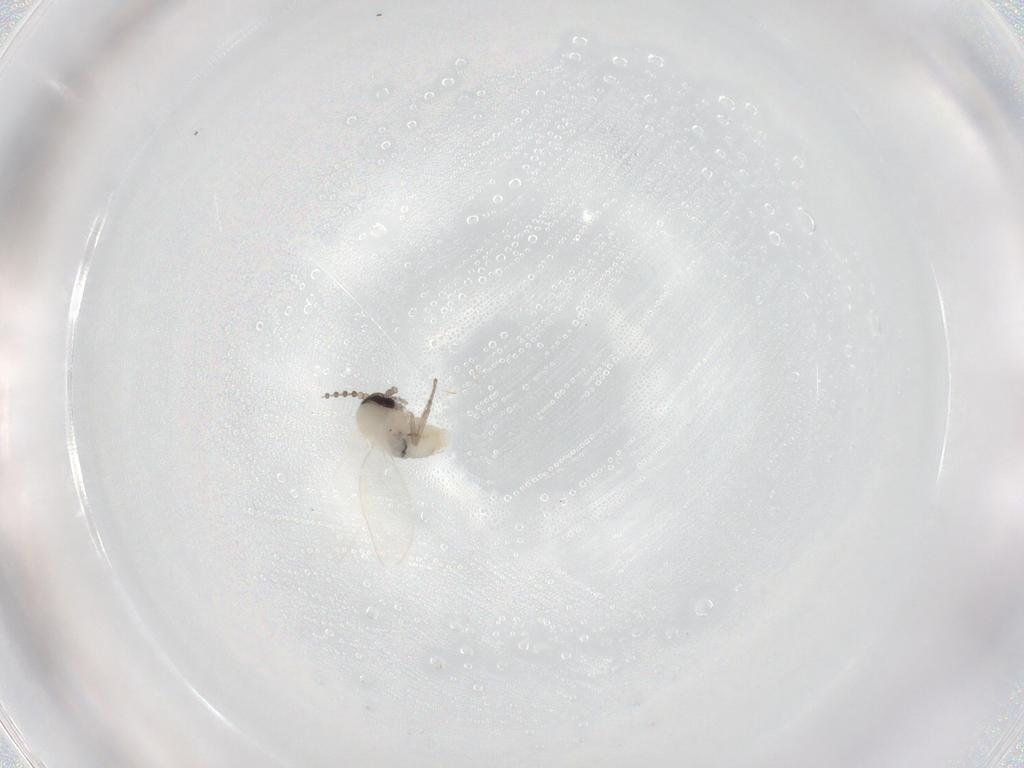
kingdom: Animalia
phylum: Arthropoda
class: Insecta
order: Diptera
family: Psychodidae
